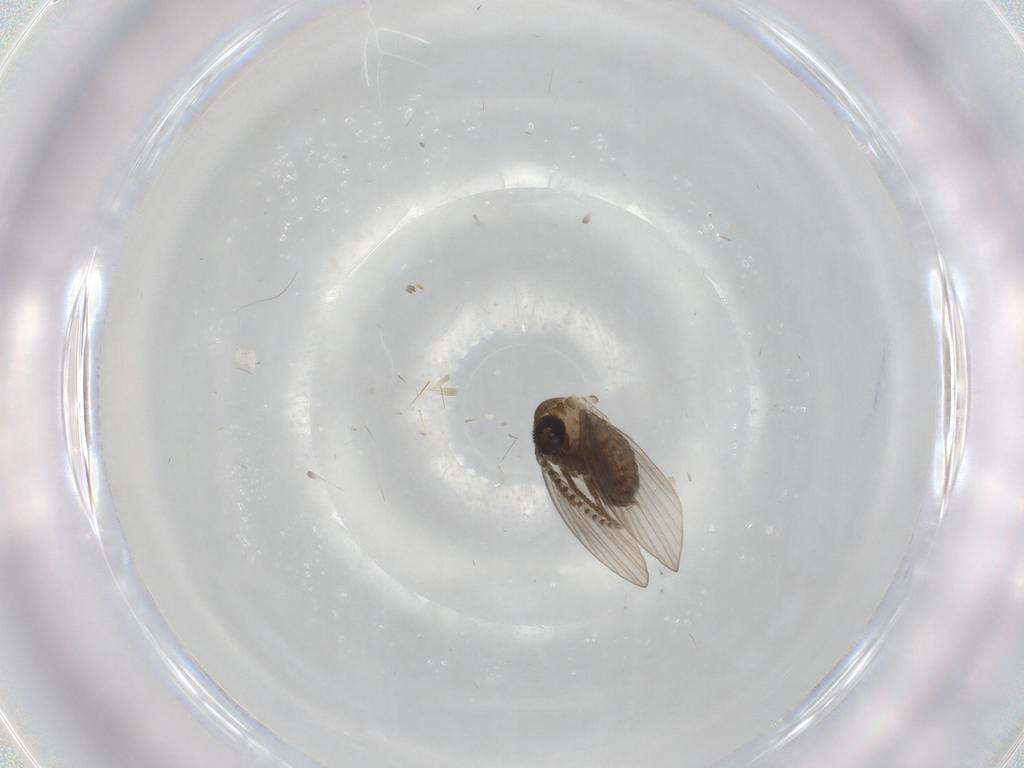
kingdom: Animalia
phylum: Arthropoda
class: Insecta
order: Diptera
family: Psychodidae
